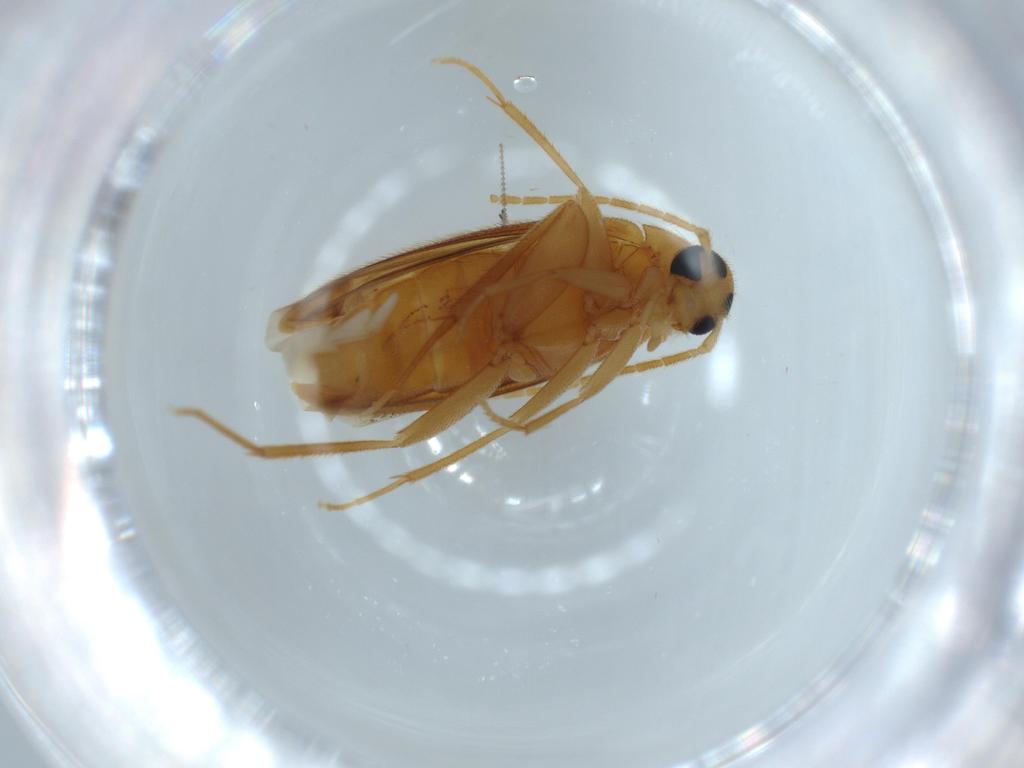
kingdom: Animalia
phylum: Arthropoda
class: Insecta
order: Coleoptera
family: Scraptiidae
